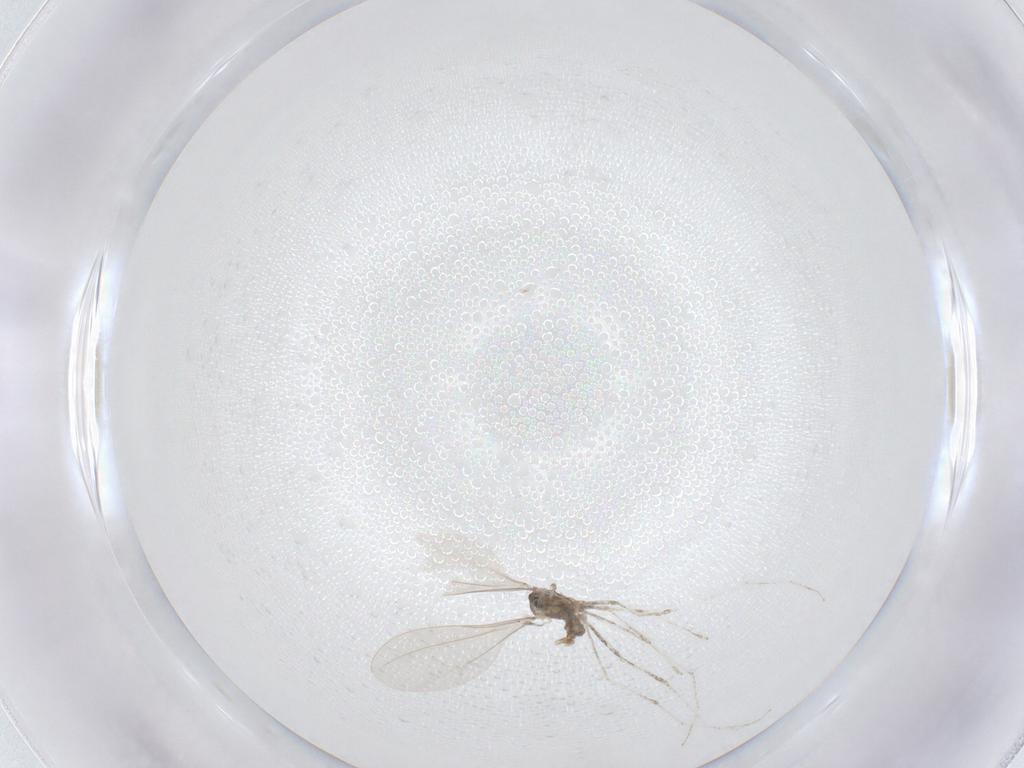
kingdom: Animalia
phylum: Arthropoda
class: Insecta
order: Diptera
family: Cecidomyiidae
